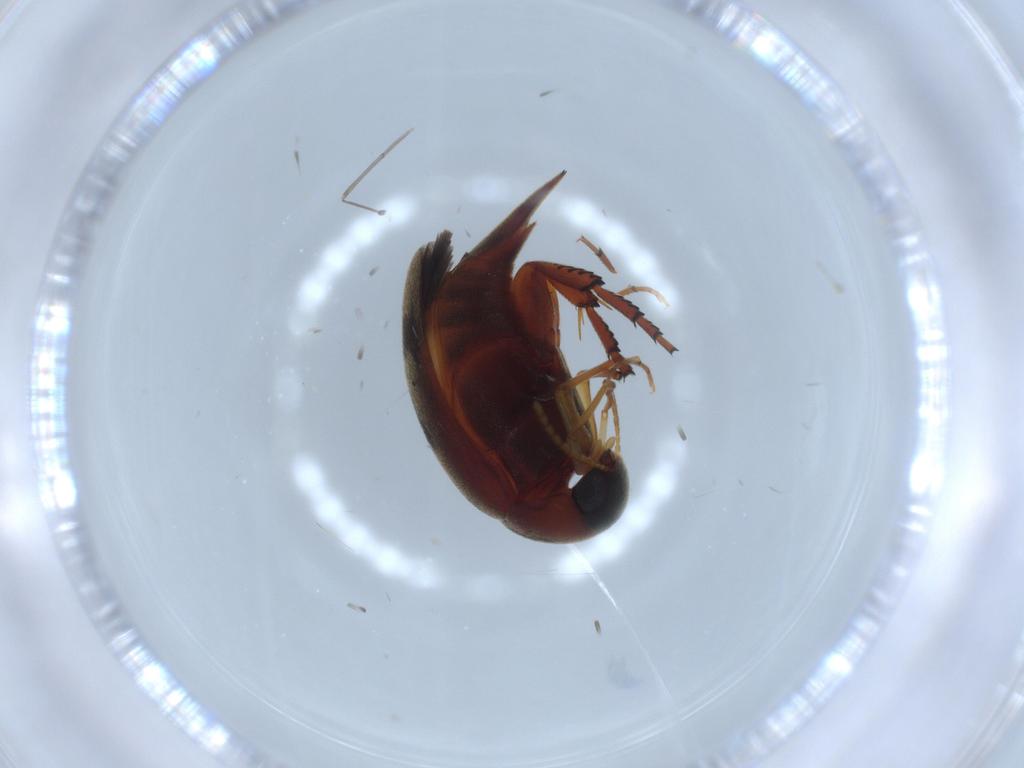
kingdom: Animalia
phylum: Arthropoda
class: Insecta
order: Coleoptera
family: Mordellidae
